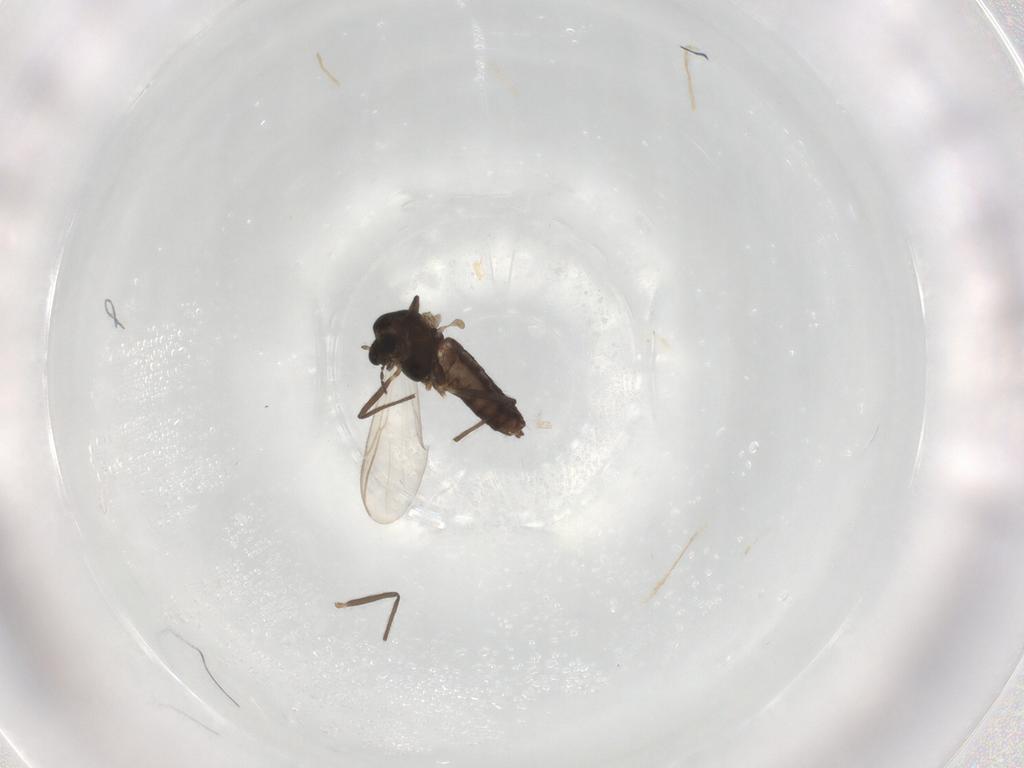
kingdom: Animalia
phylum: Arthropoda
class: Insecta
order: Diptera
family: Chironomidae
